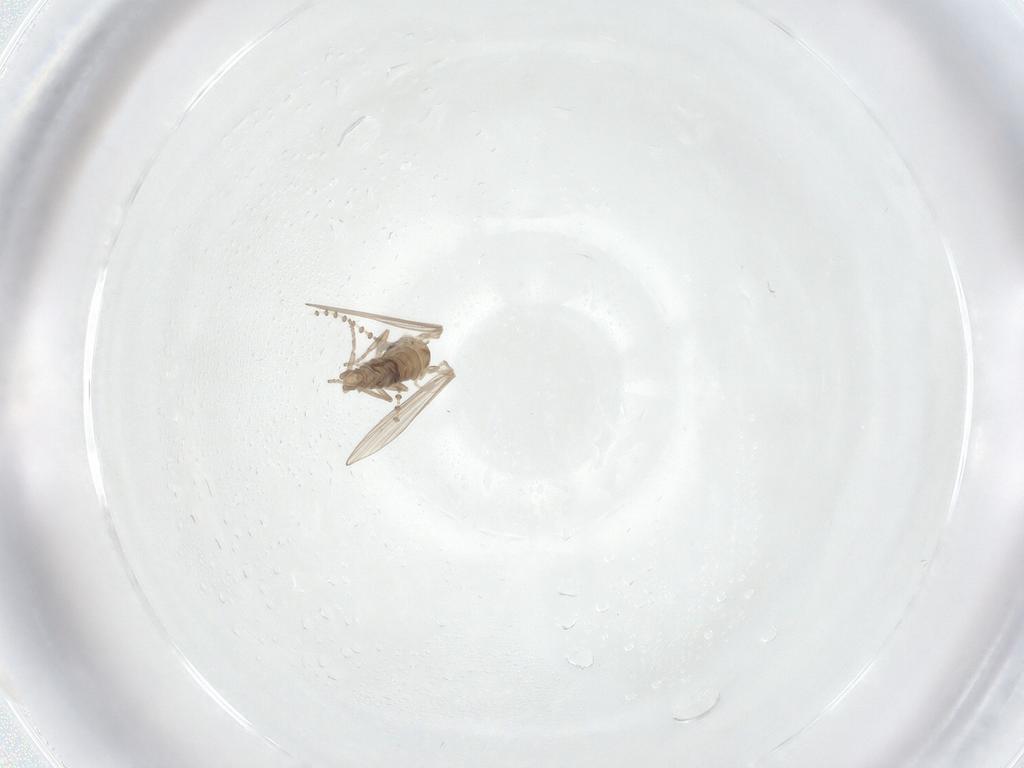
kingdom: Animalia
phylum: Arthropoda
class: Insecta
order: Diptera
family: Psychodidae
